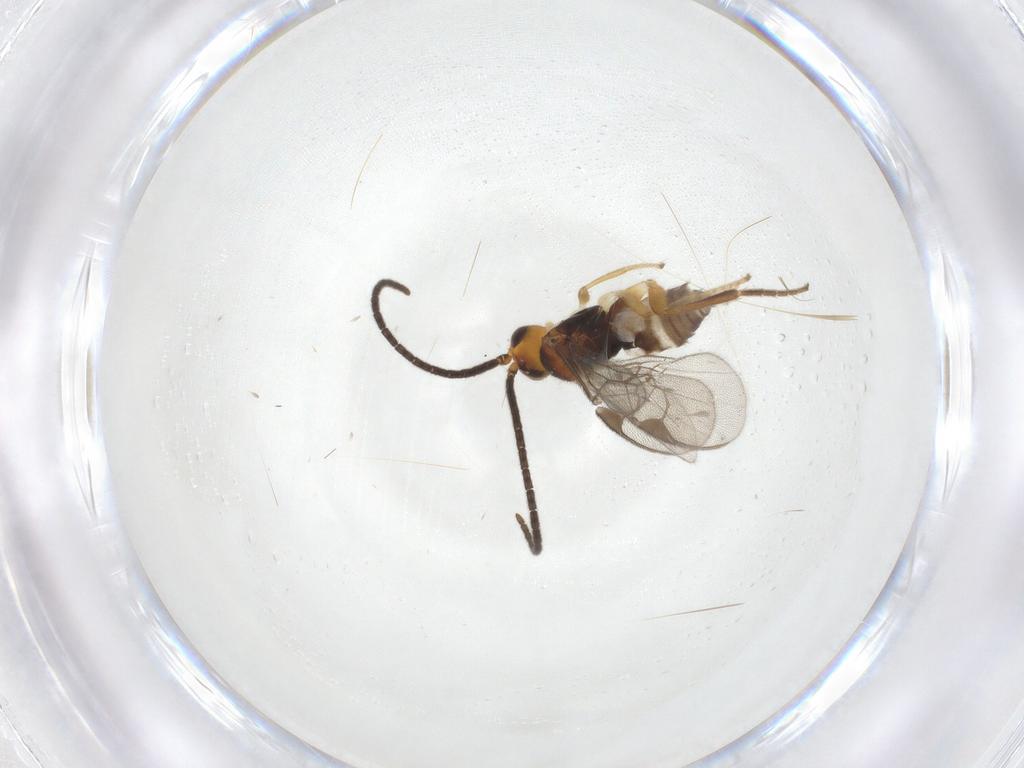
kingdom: Animalia
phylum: Arthropoda
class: Insecta
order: Hymenoptera
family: Braconidae
